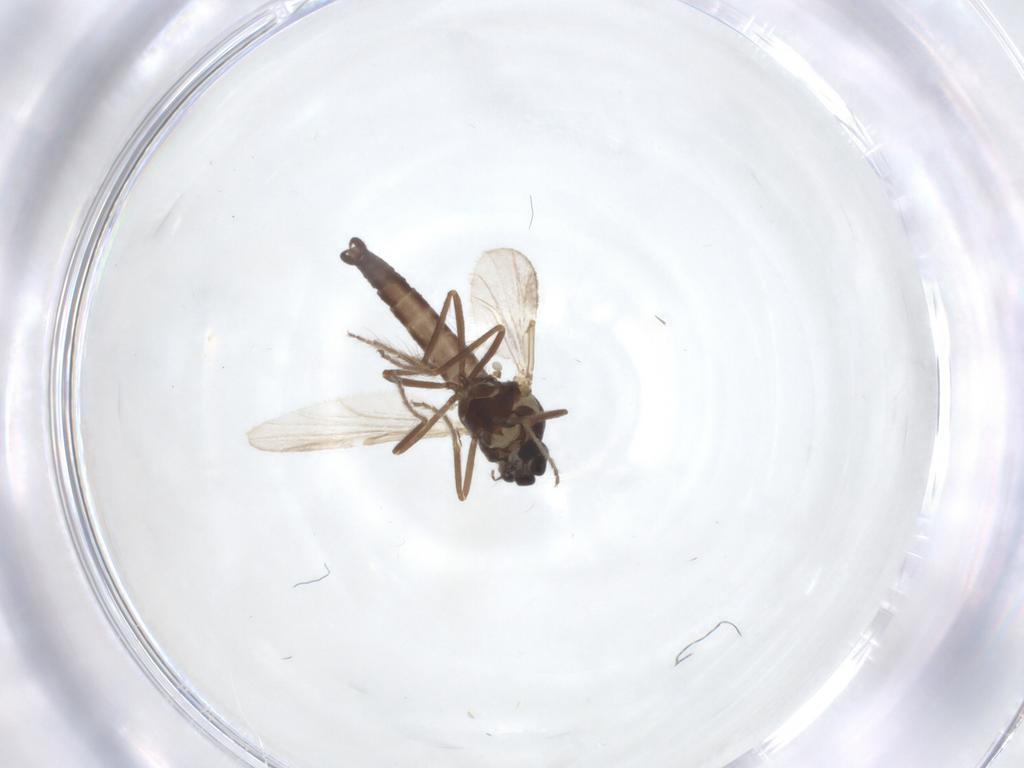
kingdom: Animalia
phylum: Arthropoda
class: Insecta
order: Diptera
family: Ceratopogonidae
